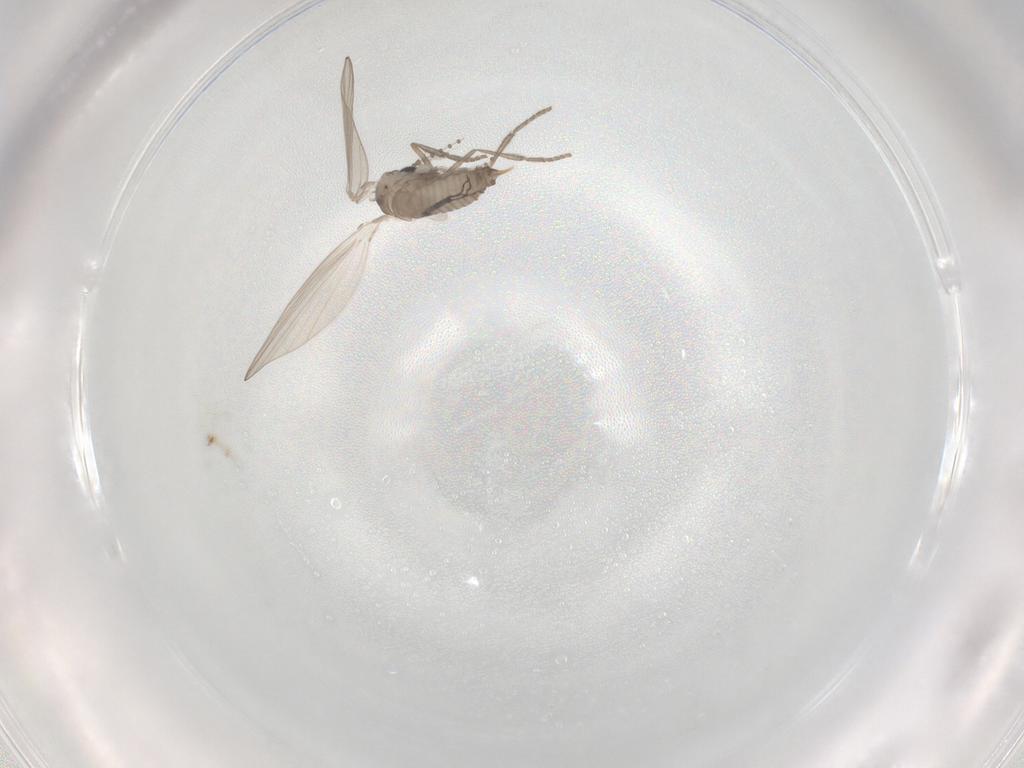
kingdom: Animalia
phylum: Arthropoda
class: Insecta
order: Diptera
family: Psychodidae
